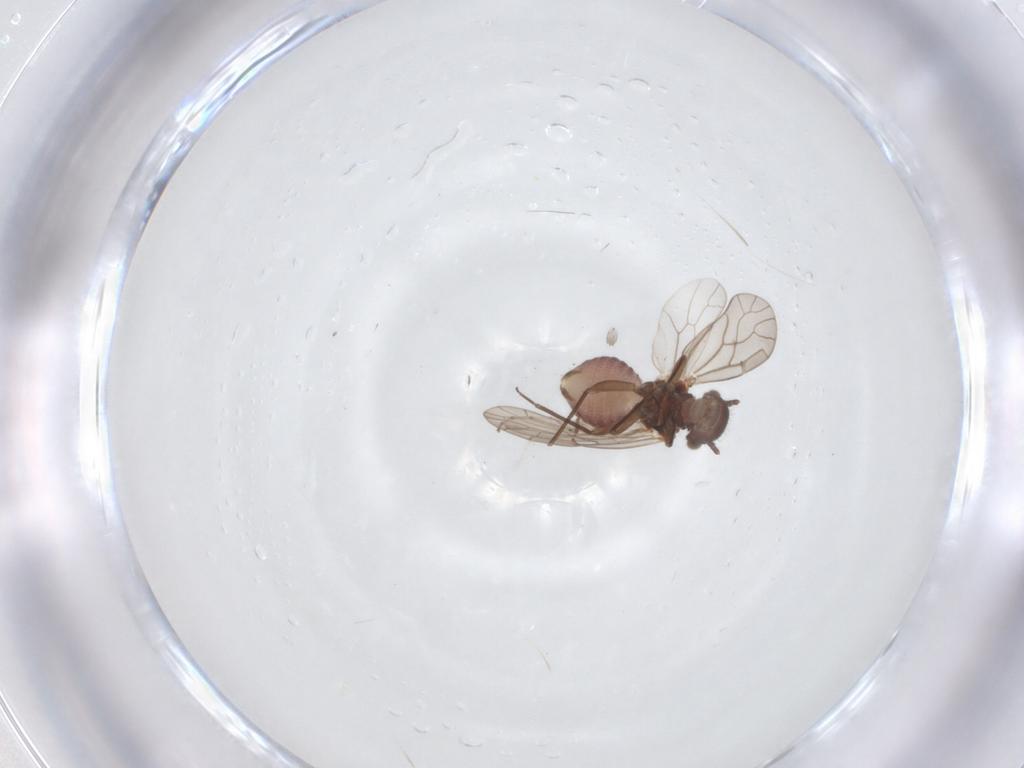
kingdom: Animalia
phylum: Arthropoda
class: Insecta
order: Psocodea
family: Ectopsocidae
